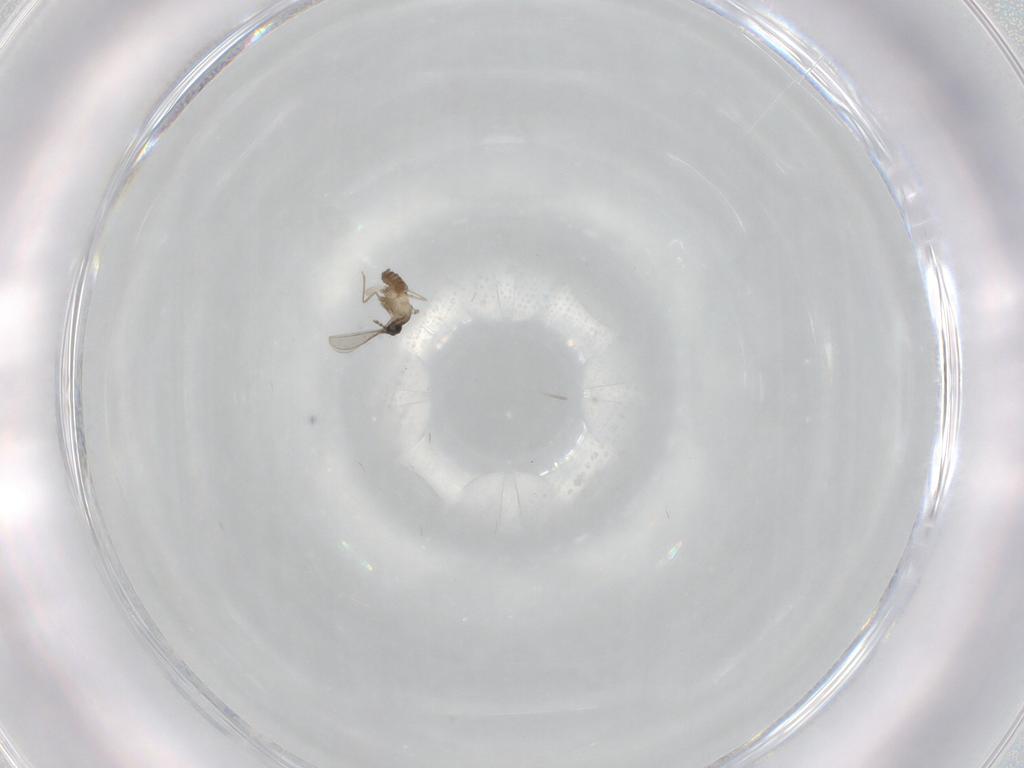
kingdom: Animalia
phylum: Arthropoda
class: Insecta
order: Diptera
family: Cecidomyiidae
